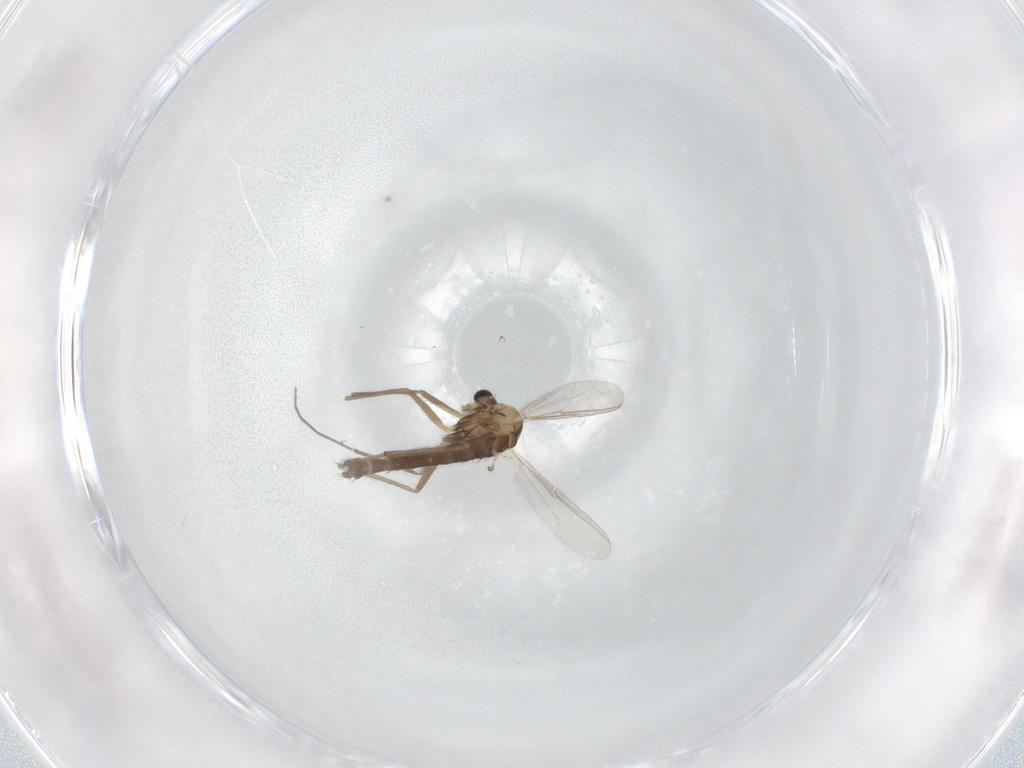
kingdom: Animalia
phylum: Arthropoda
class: Insecta
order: Diptera
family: Chironomidae
